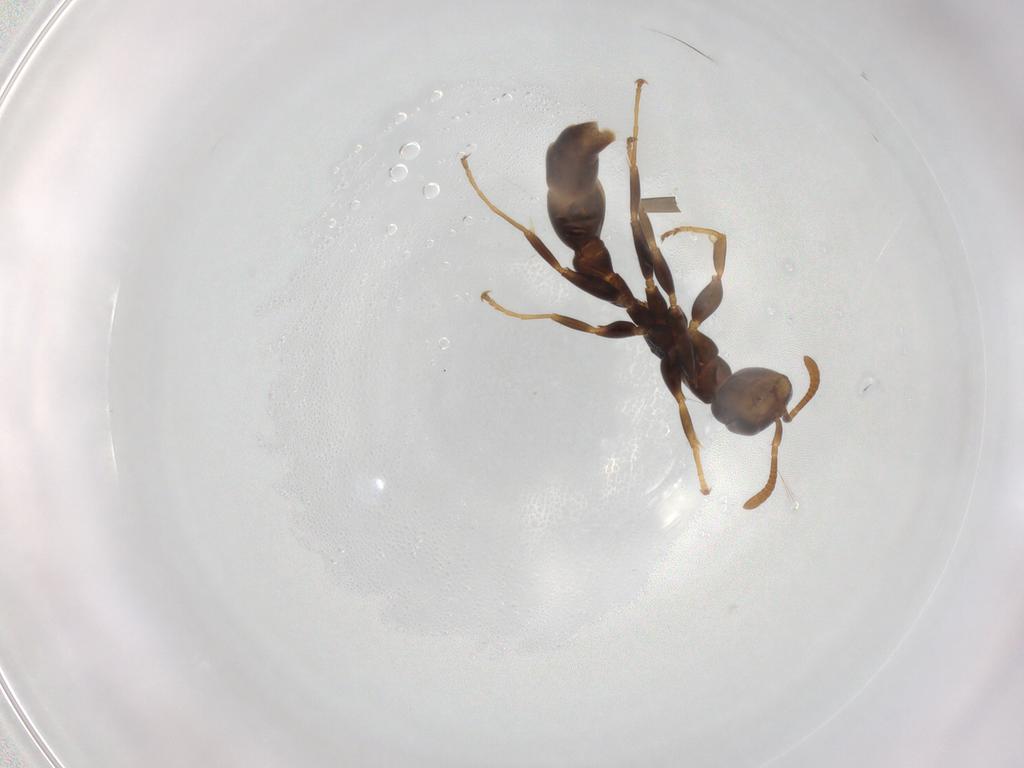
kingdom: Animalia
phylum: Arthropoda
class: Insecta
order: Hymenoptera
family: Formicidae
